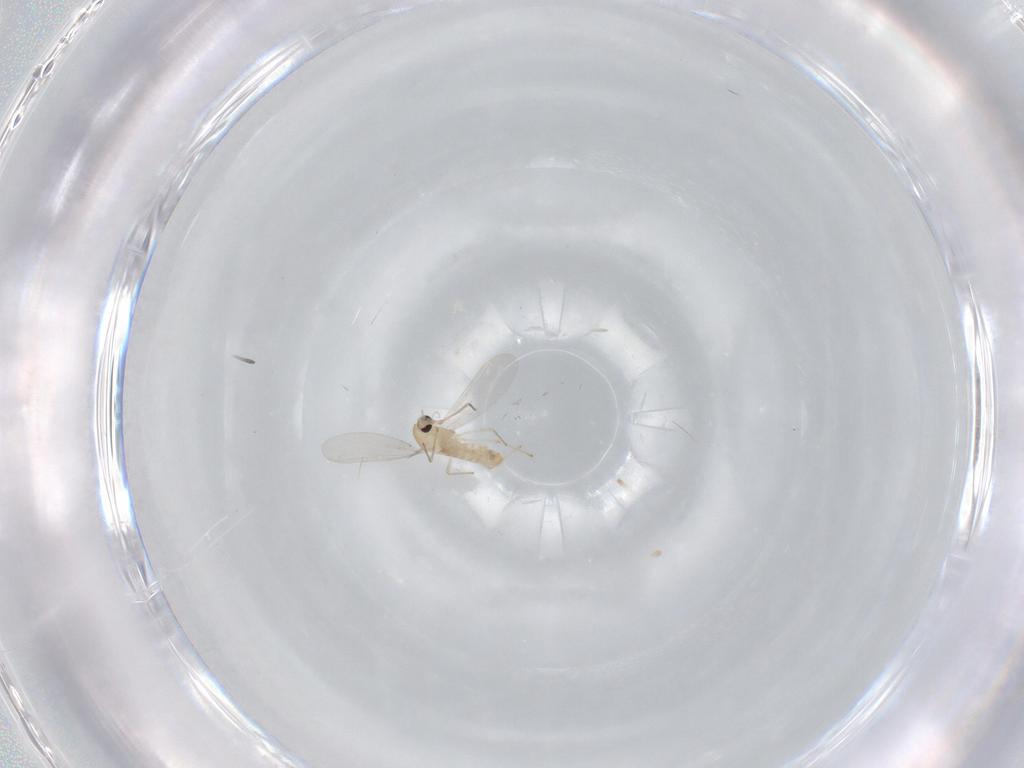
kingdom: Animalia
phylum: Arthropoda
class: Insecta
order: Diptera
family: Chironomidae
